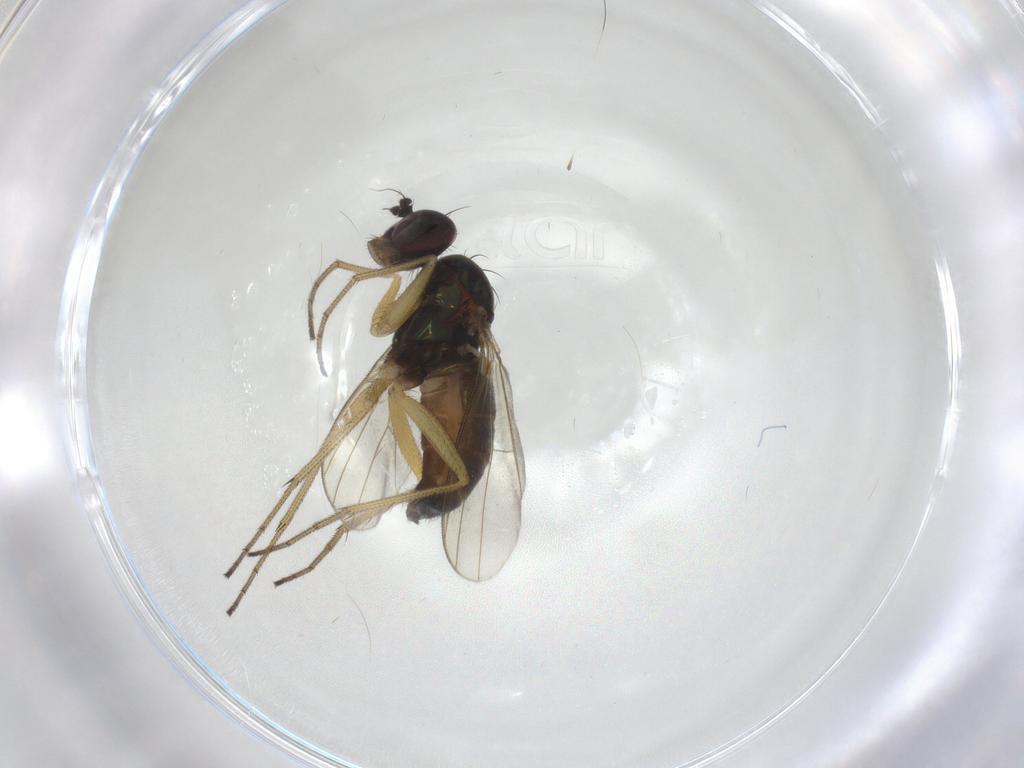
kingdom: Animalia
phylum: Arthropoda
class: Insecta
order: Diptera
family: Dolichopodidae
